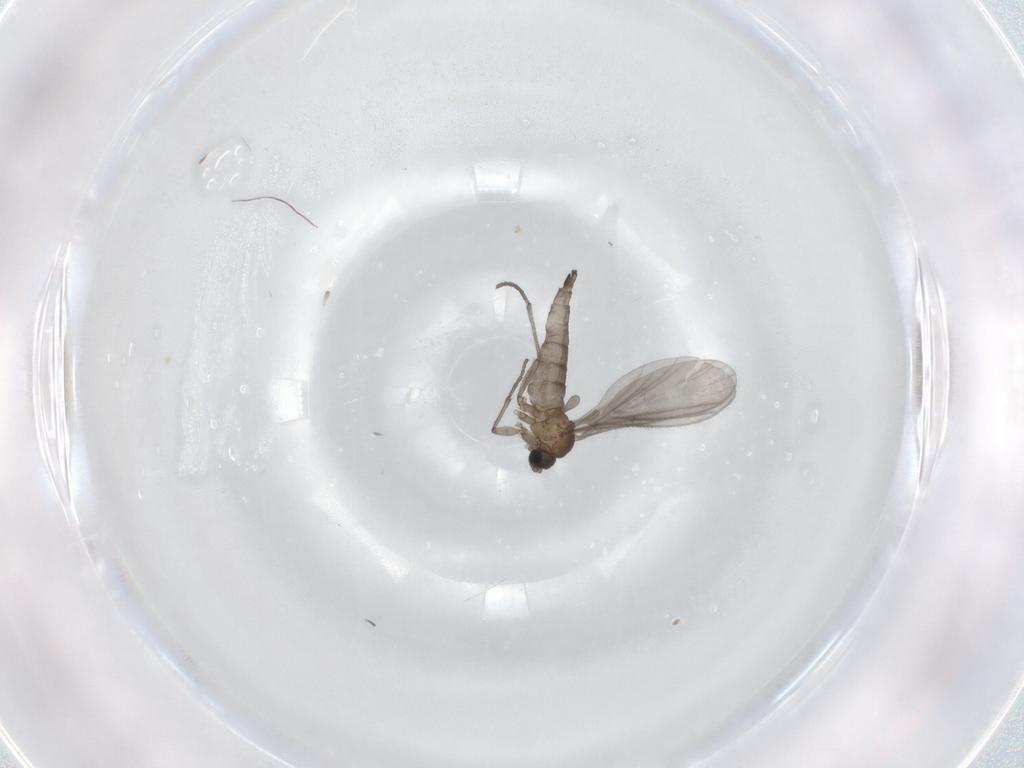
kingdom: Animalia
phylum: Arthropoda
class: Insecta
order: Diptera
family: Sciaridae
